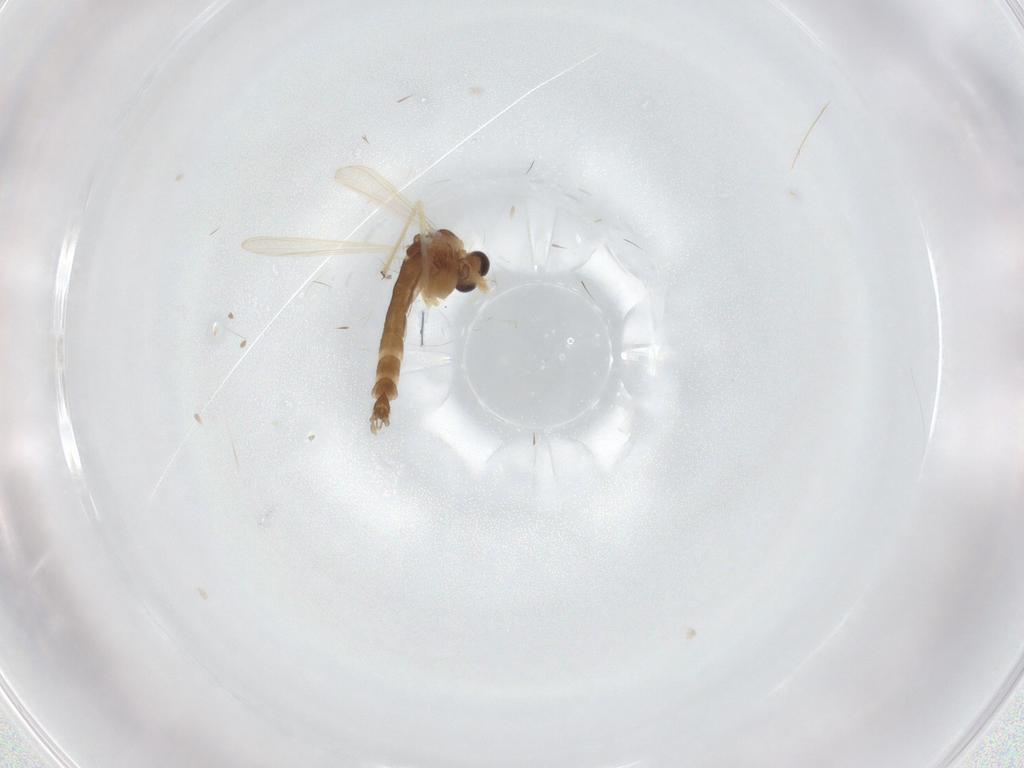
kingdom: Animalia
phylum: Arthropoda
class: Insecta
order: Diptera
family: Chironomidae
